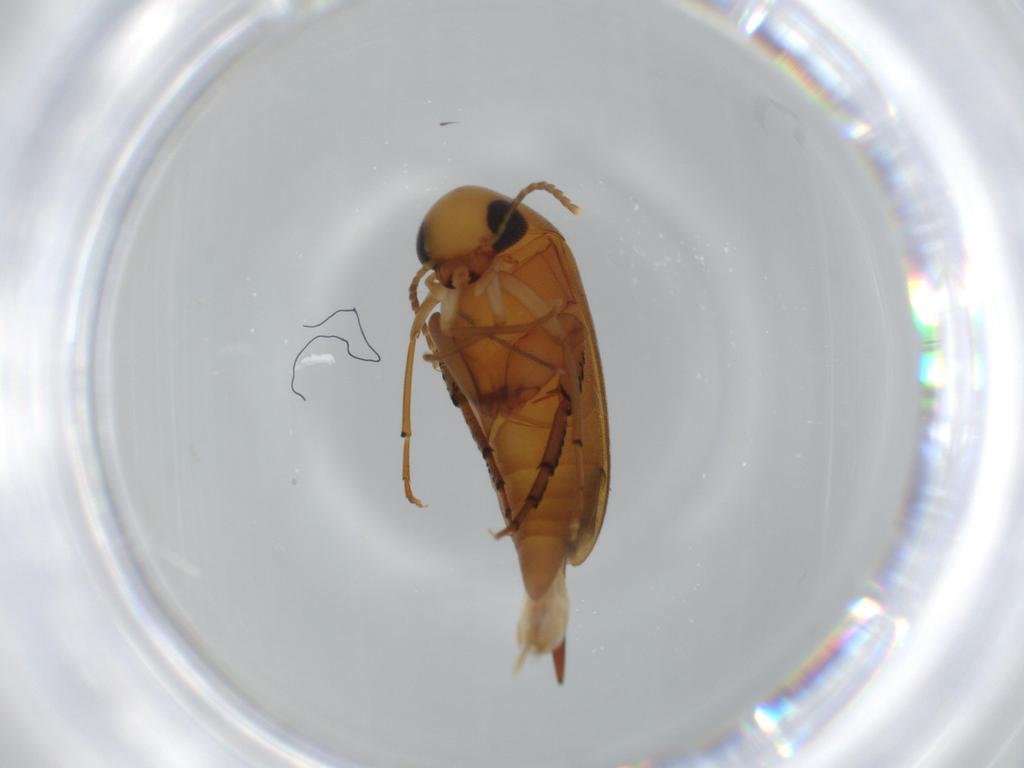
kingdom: Animalia
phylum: Arthropoda
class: Insecta
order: Coleoptera
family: Mordellidae
